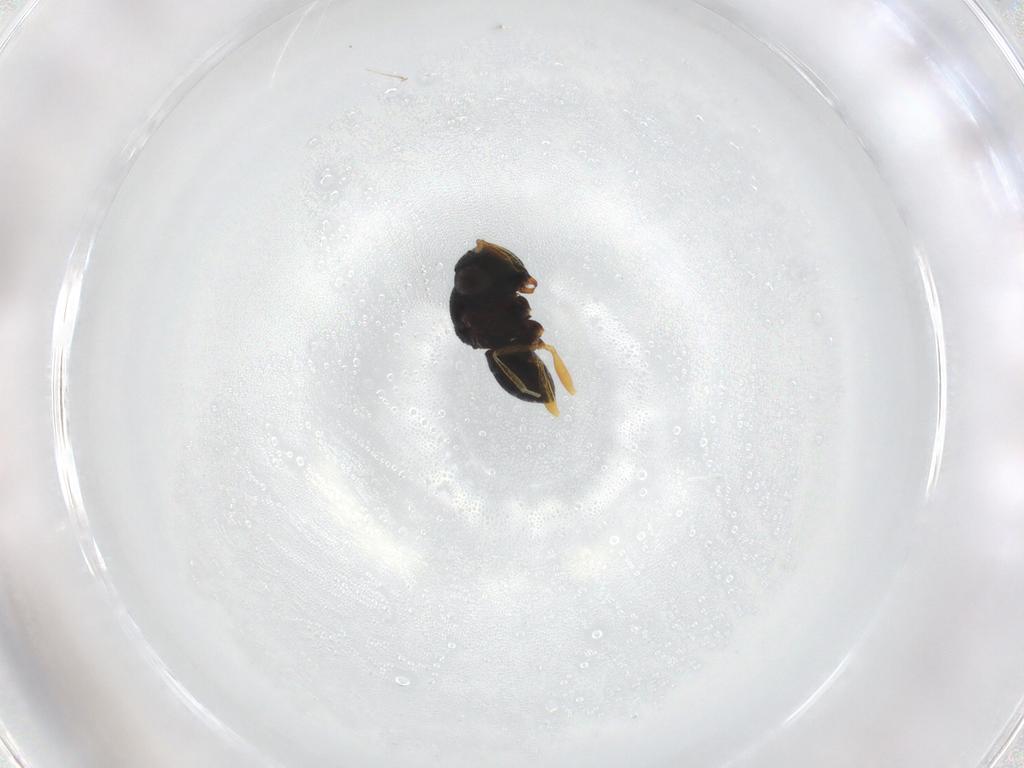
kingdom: Animalia
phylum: Arthropoda
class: Insecta
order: Hymenoptera
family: Scelionidae
